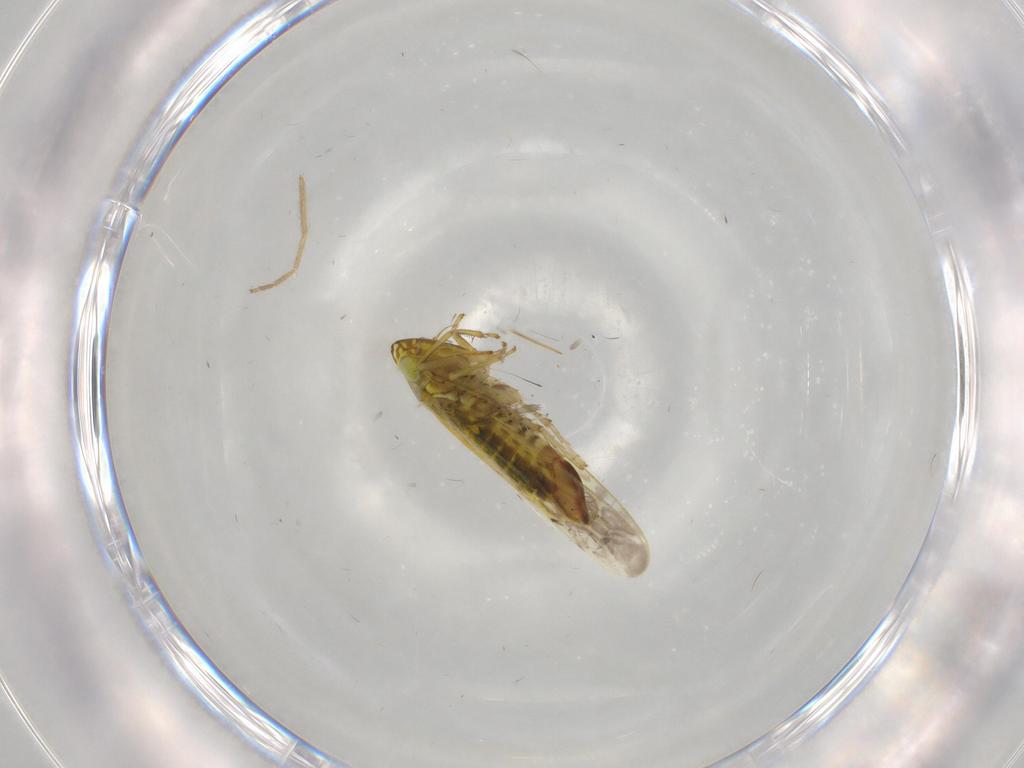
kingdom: Animalia
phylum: Arthropoda
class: Insecta
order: Hemiptera
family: Cicadellidae
